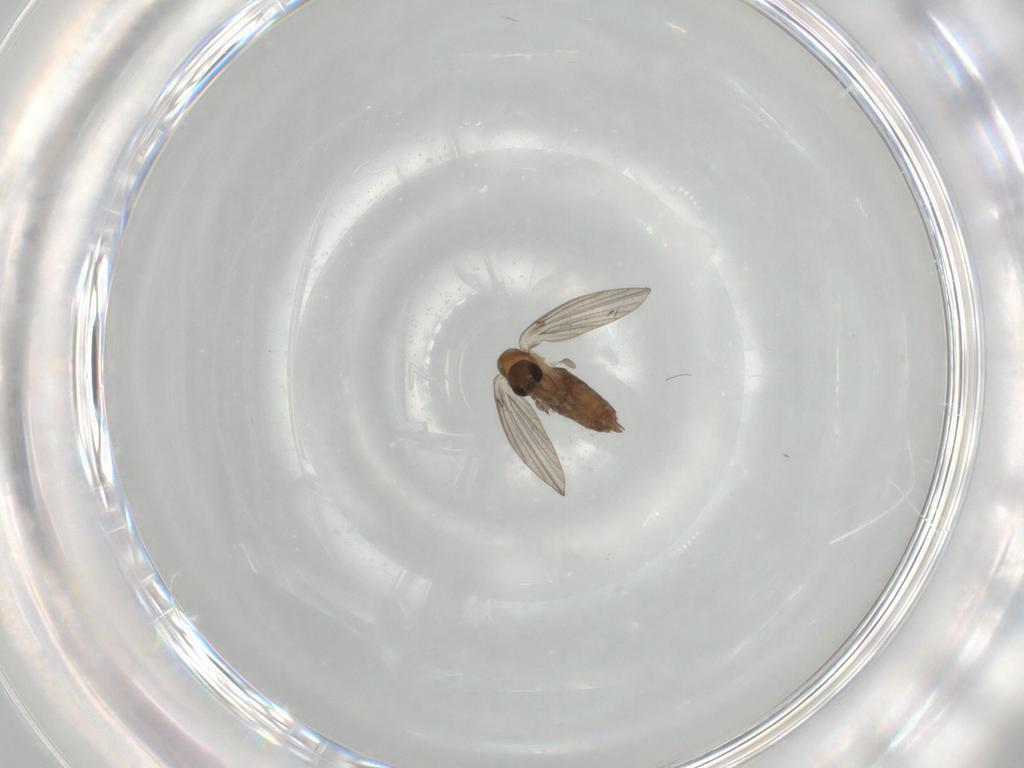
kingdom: Animalia
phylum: Arthropoda
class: Insecta
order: Diptera
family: Psychodidae
